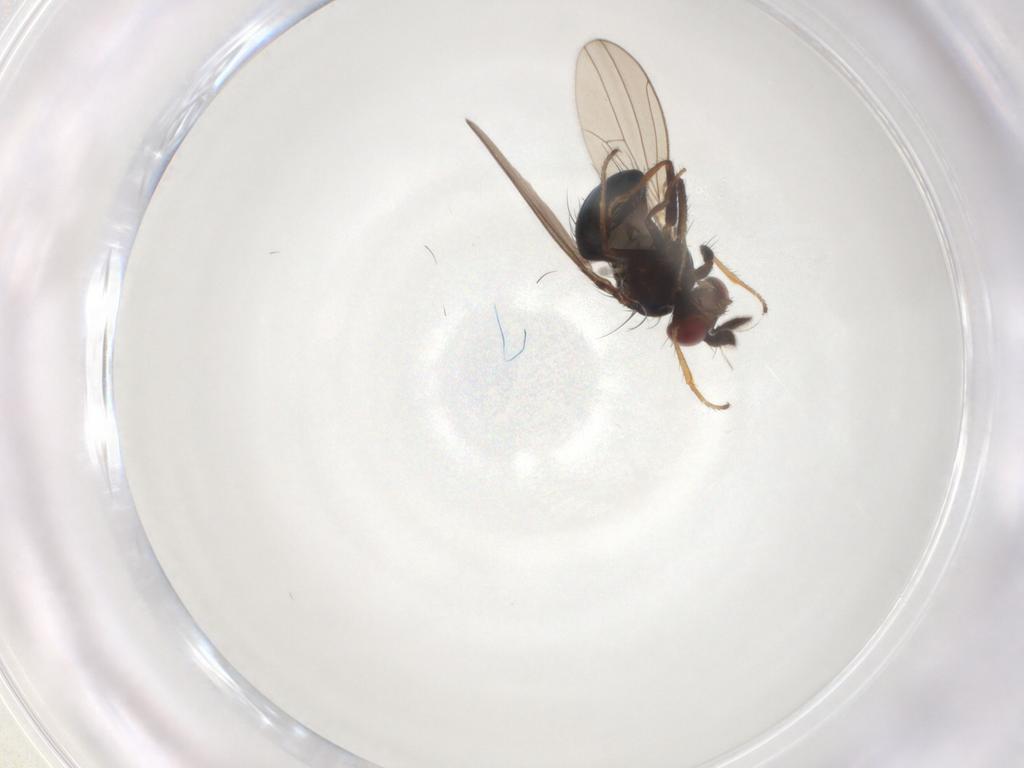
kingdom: Animalia
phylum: Arthropoda
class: Insecta
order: Diptera
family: Cecidomyiidae
